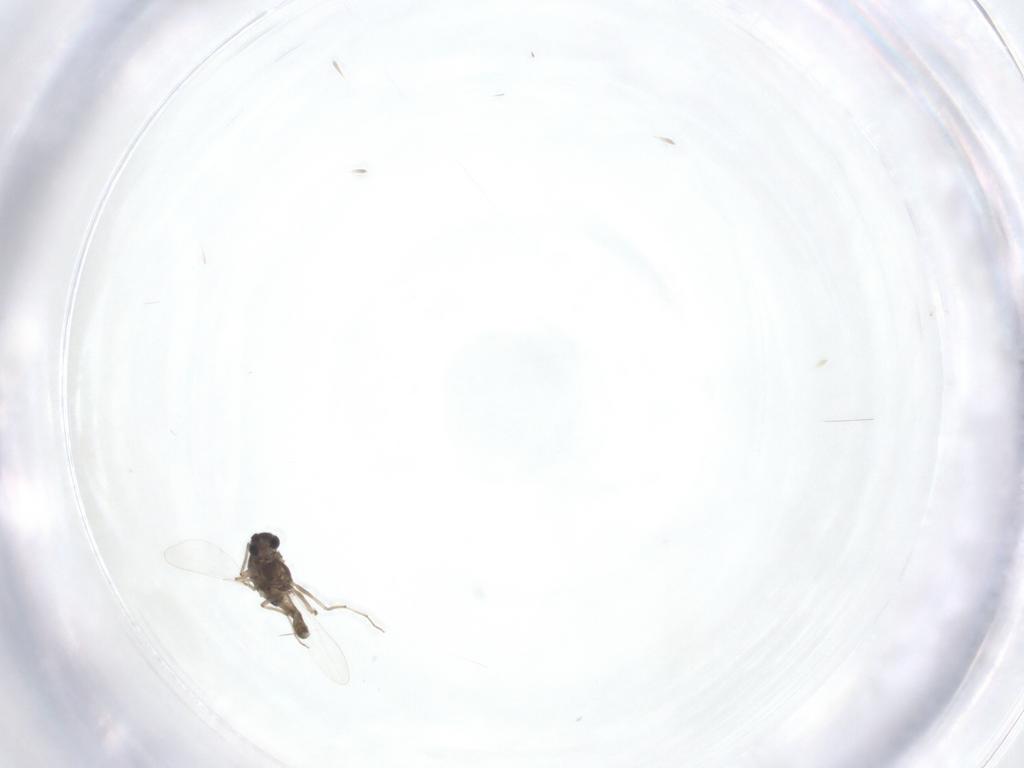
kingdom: Animalia
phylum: Arthropoda
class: Insecta
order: Diptera
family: Chironomidae
